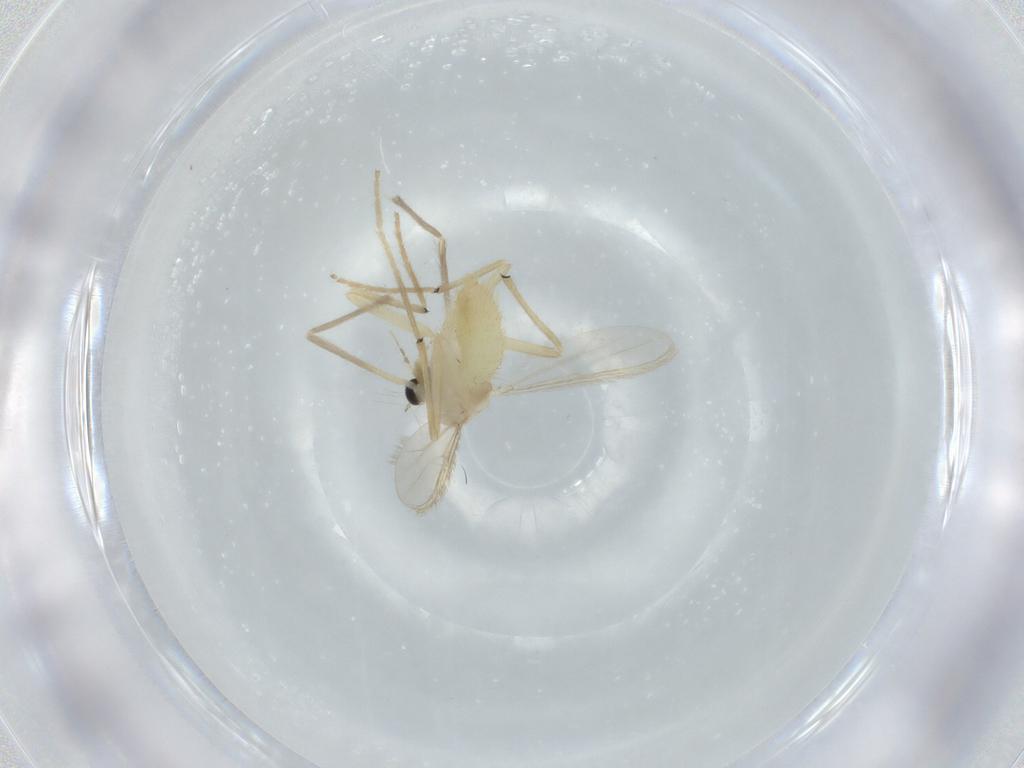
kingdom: Animalia
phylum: Arthropoda
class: Insecta
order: Diptera
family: Chironomidae
